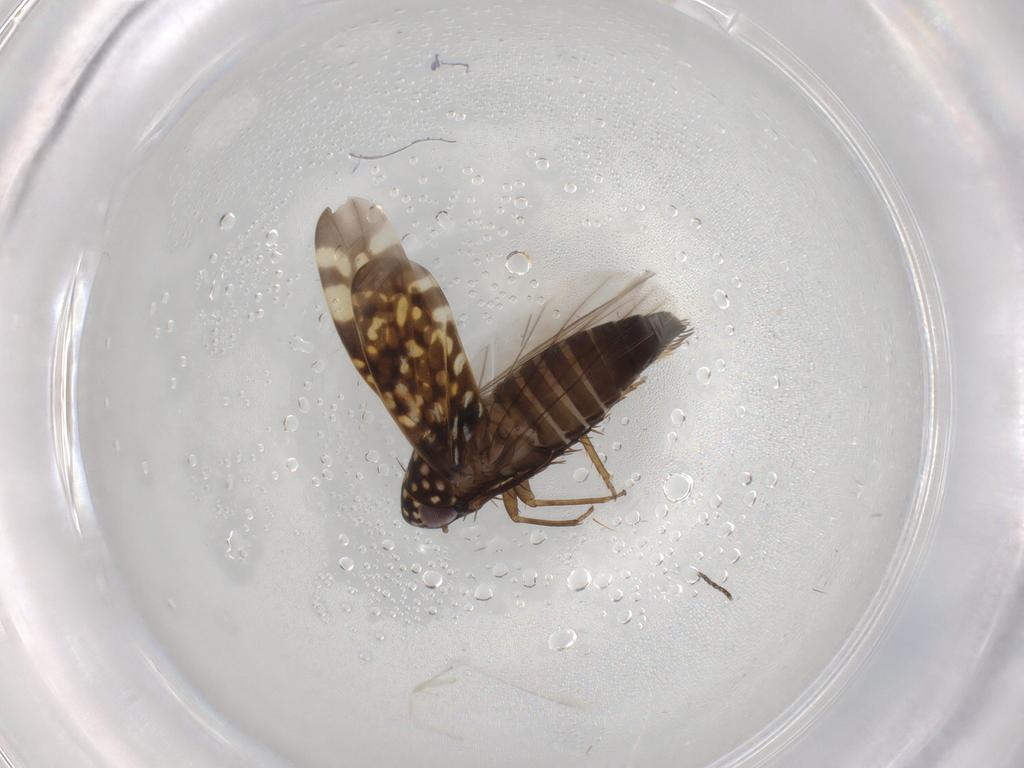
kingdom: Animalia
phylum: Arthropoda
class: Insecta
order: Hemiptera
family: Cicadellidae
